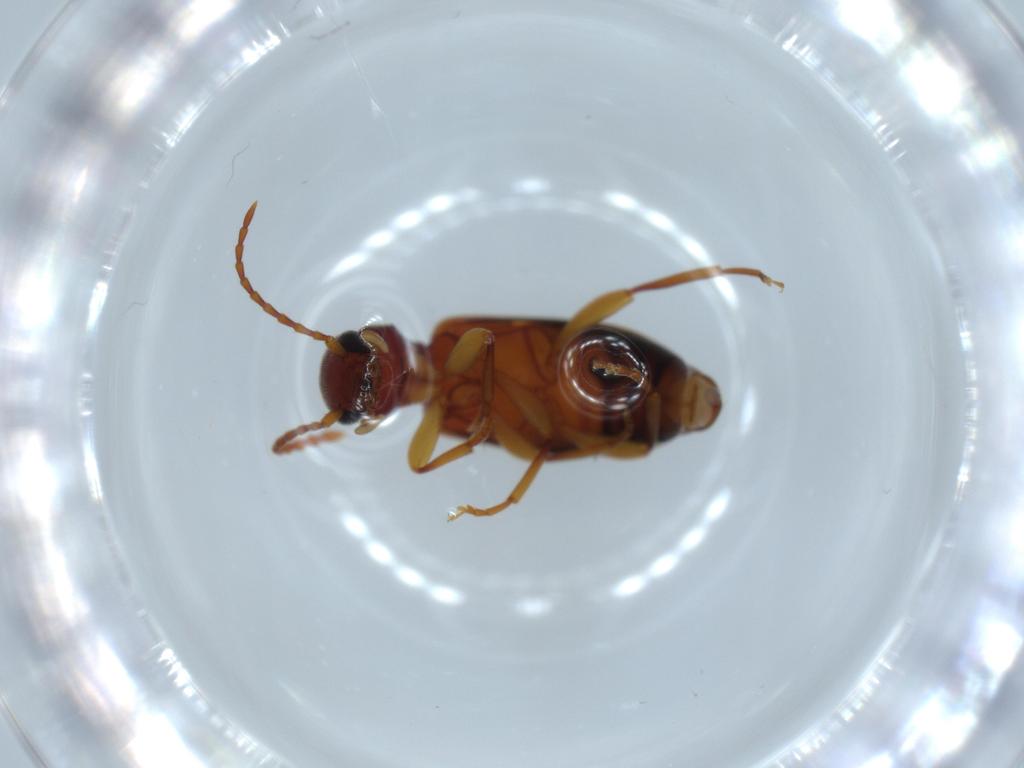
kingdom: Animalia
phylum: Arthropoda
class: Insecta
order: Coleoptera
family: Anthicidae
